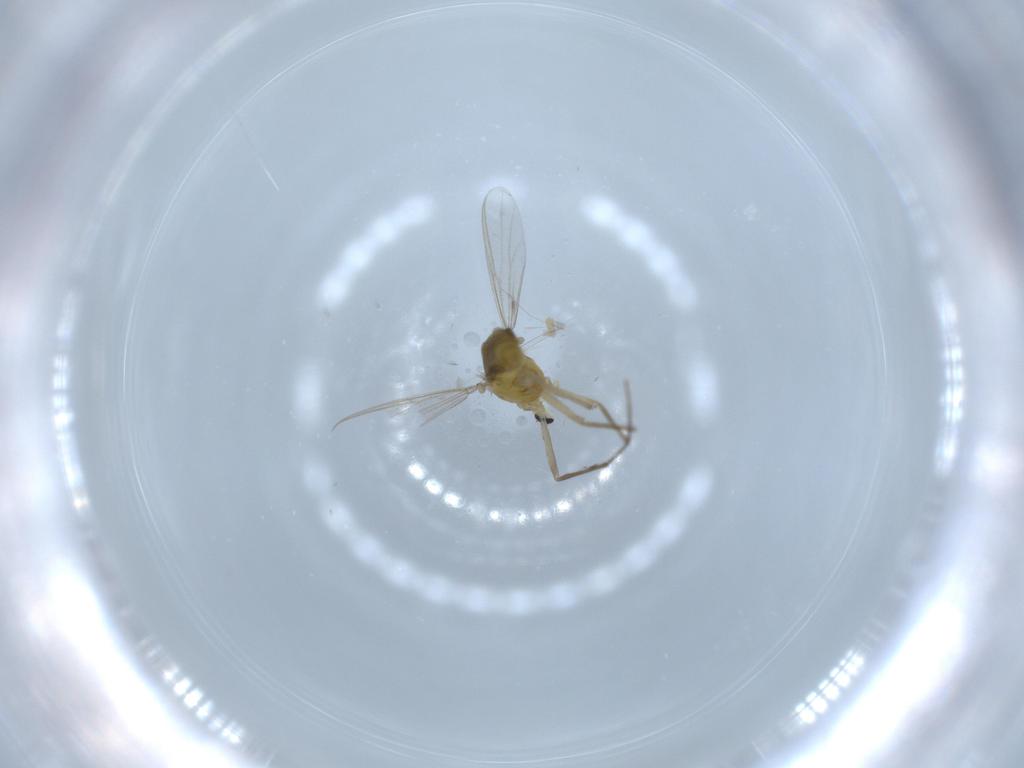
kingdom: Animalia
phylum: Arthropoda
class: Insecta
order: Diptera
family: Chironomidae
